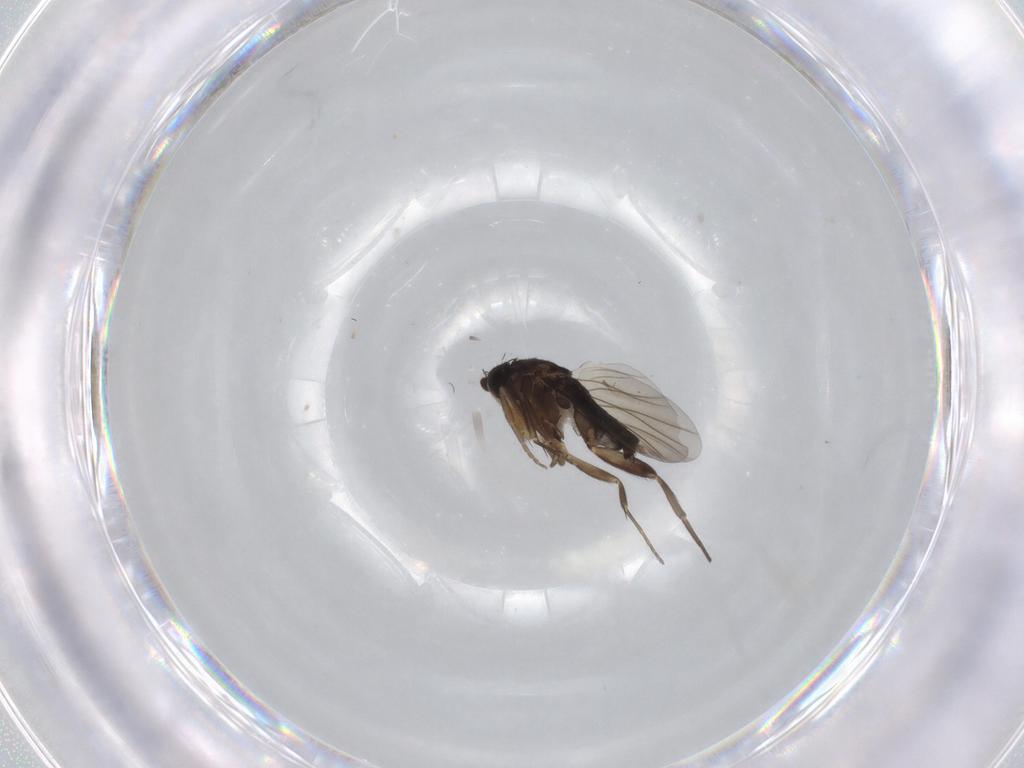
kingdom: Animalia
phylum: Arthropoda
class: Insecta
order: Diptera
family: Phoridae
